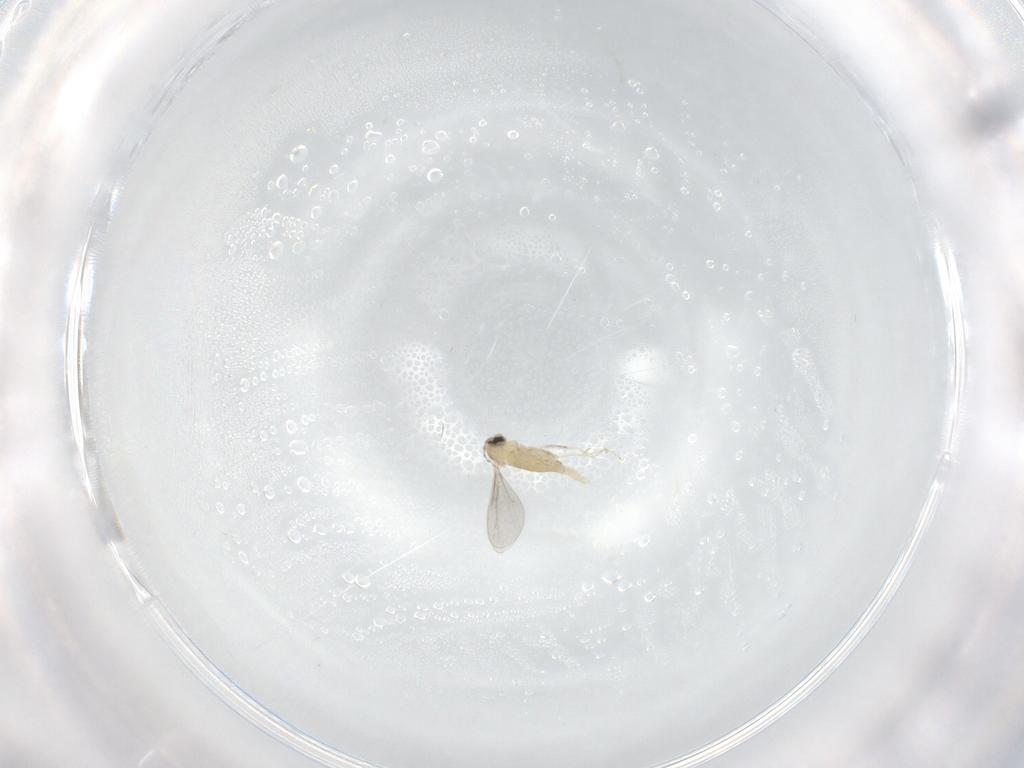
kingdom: Animalia
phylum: Arthropoda
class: Insecta
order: Diptera
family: Cecidomyiidae
